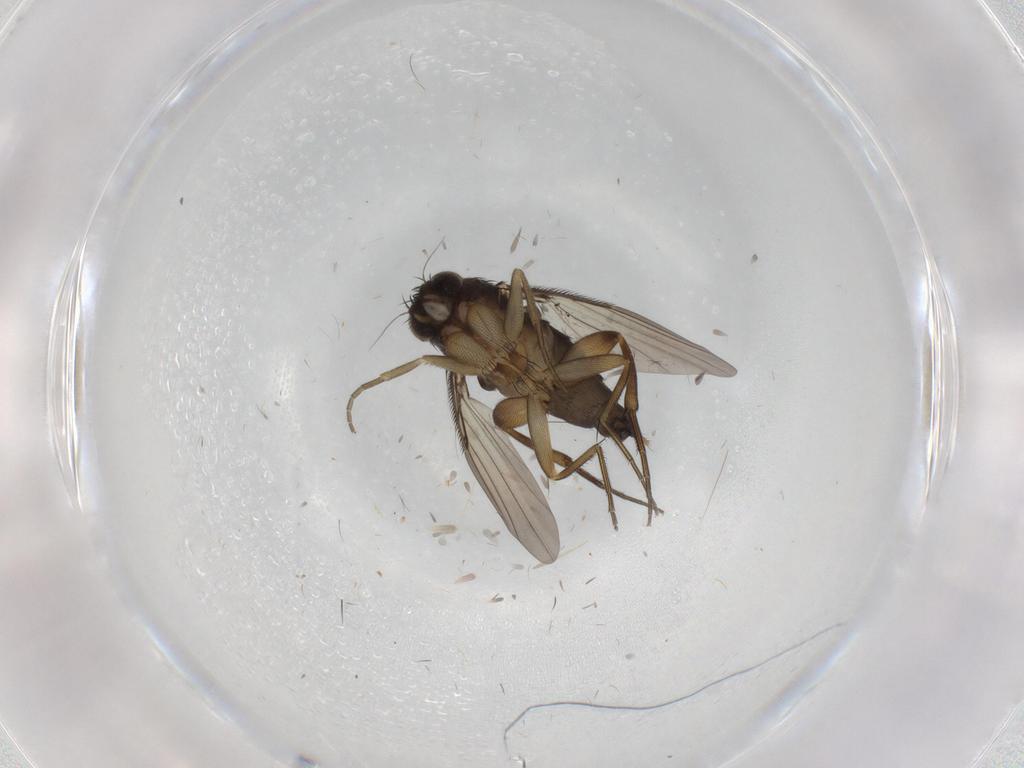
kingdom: Animalia
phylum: Arthropoda
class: Insecta
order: Diptera
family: Phoridae
